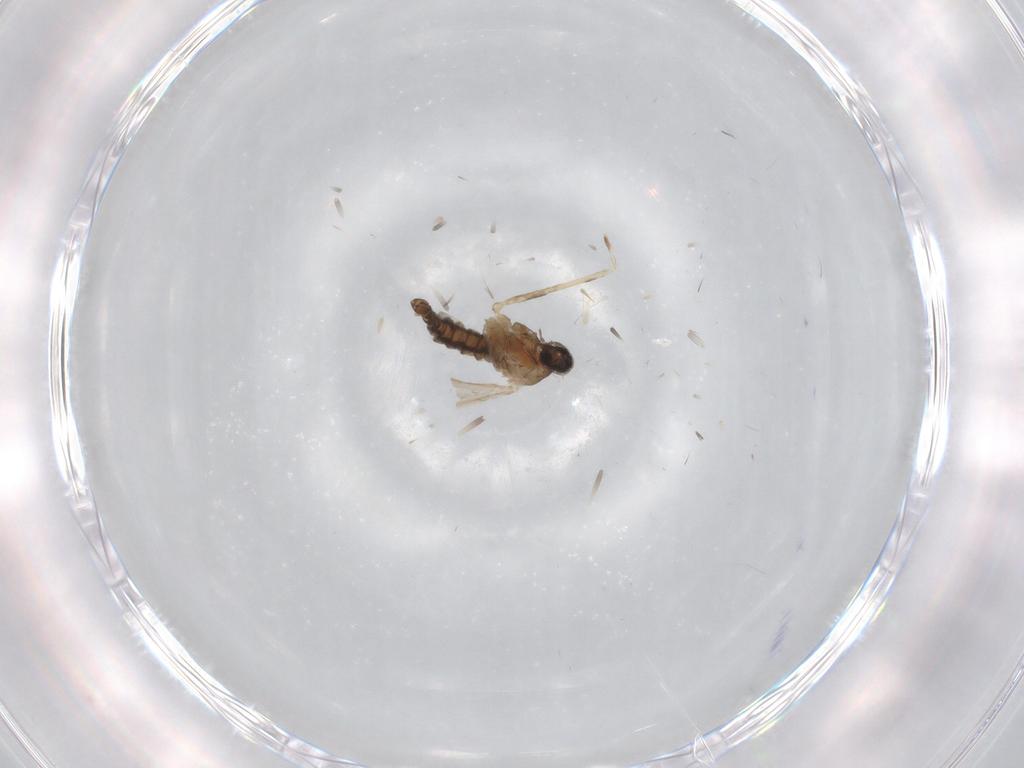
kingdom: Animalia
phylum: Arthropoda
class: Insecta
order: Diptera
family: Cecidomyiidae
